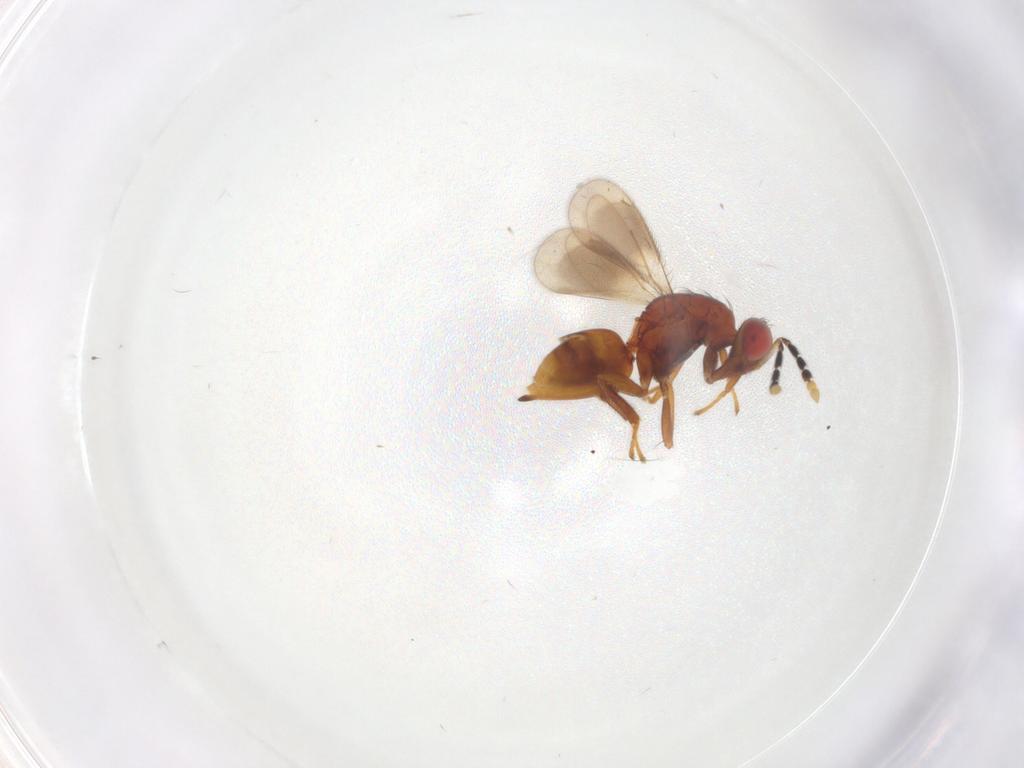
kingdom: Animalia
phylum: Arthropoda
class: Insecta
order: Hymenoptera
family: Eulophidae
